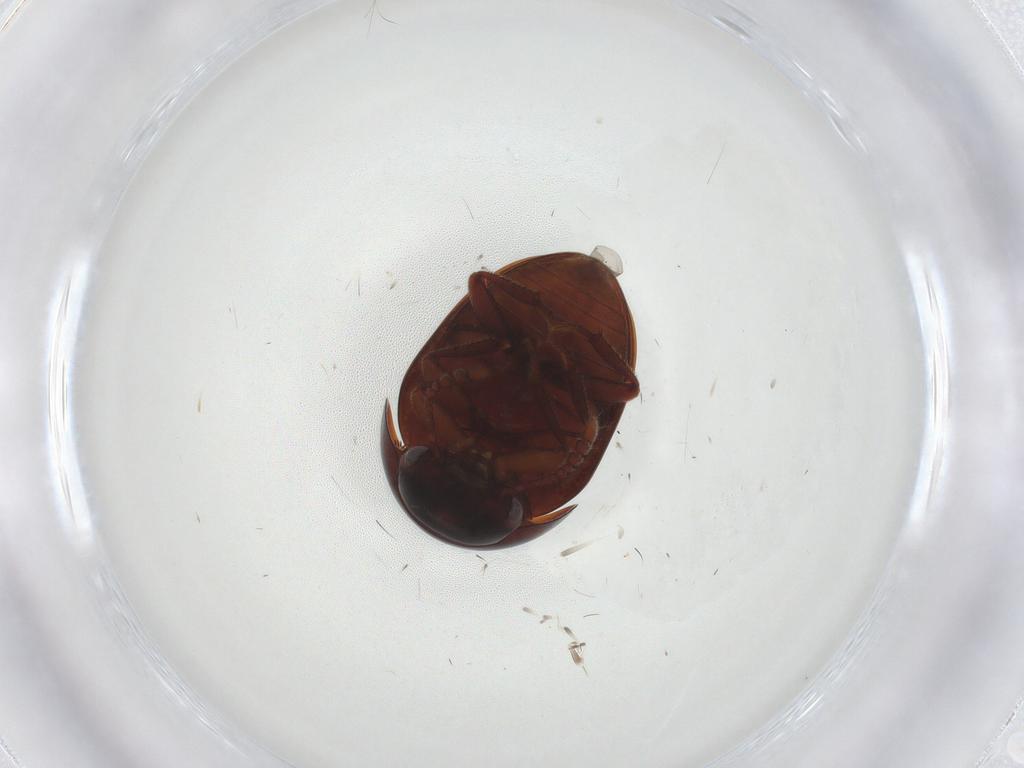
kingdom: Animalia
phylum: Arthropoda
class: Insecta
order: Coleoptera
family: Leiodidae
